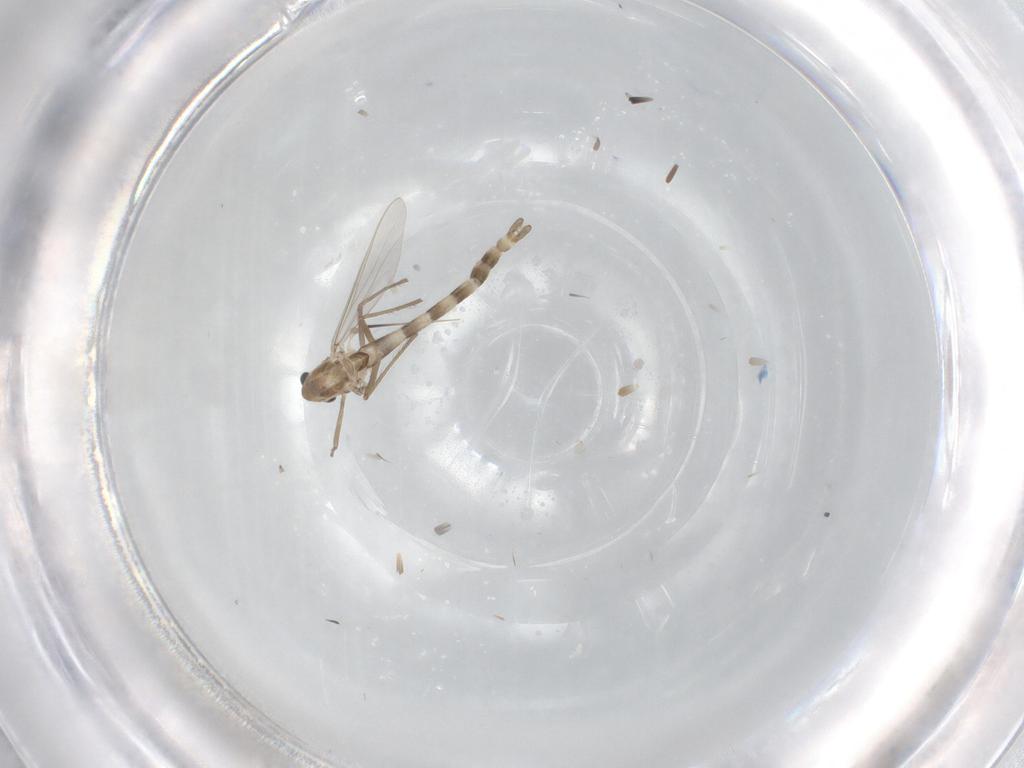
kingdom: Animalia
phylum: Arthropoda
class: Insecta
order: Diptera
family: Chironomidae
